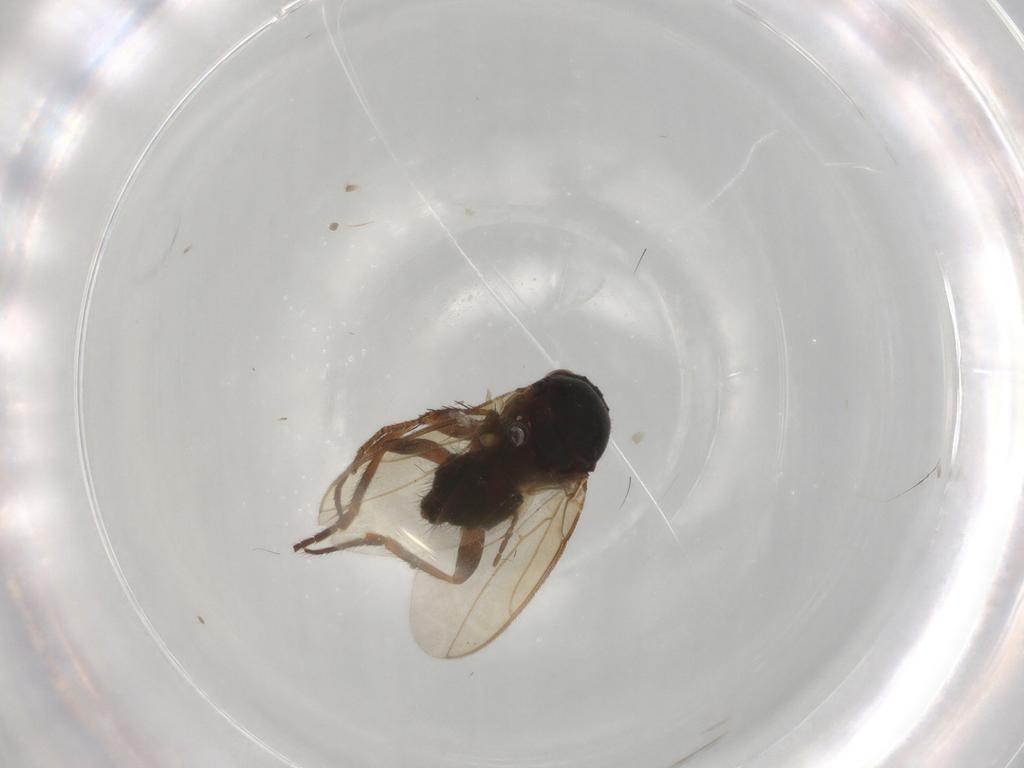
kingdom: Animalia
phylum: Arthropoda
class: Insecta
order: Diptera
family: Sphaeroceridae
